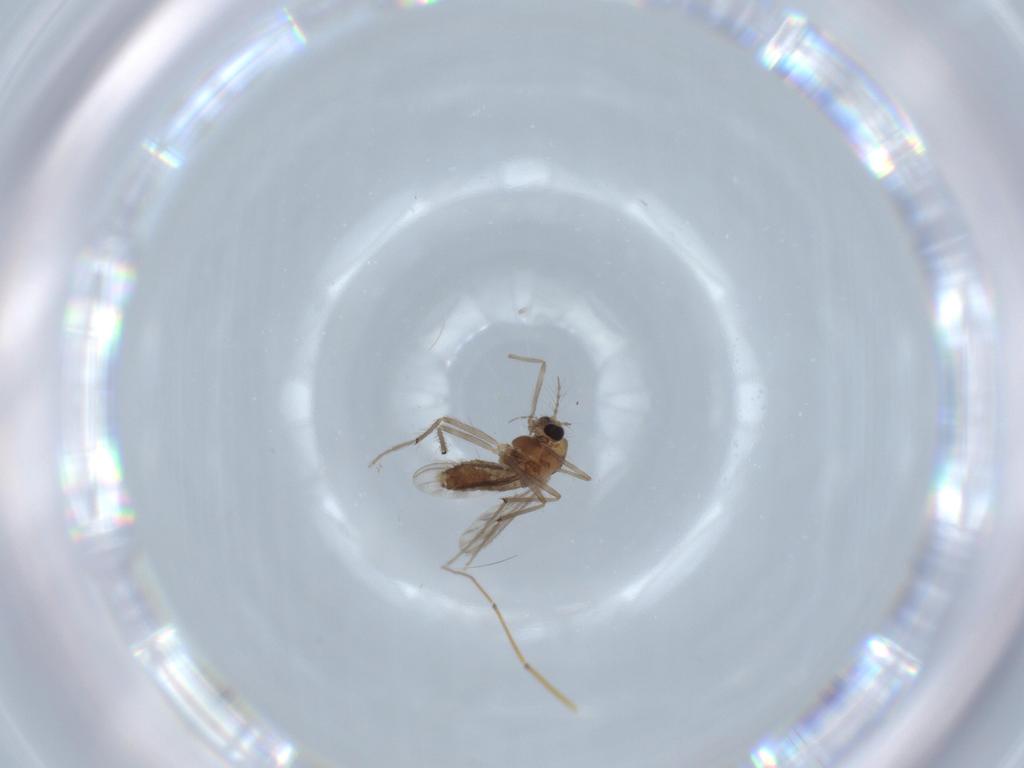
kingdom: Animalia
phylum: Arthropoda
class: Insecta
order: Diptera
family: Chironomidae
